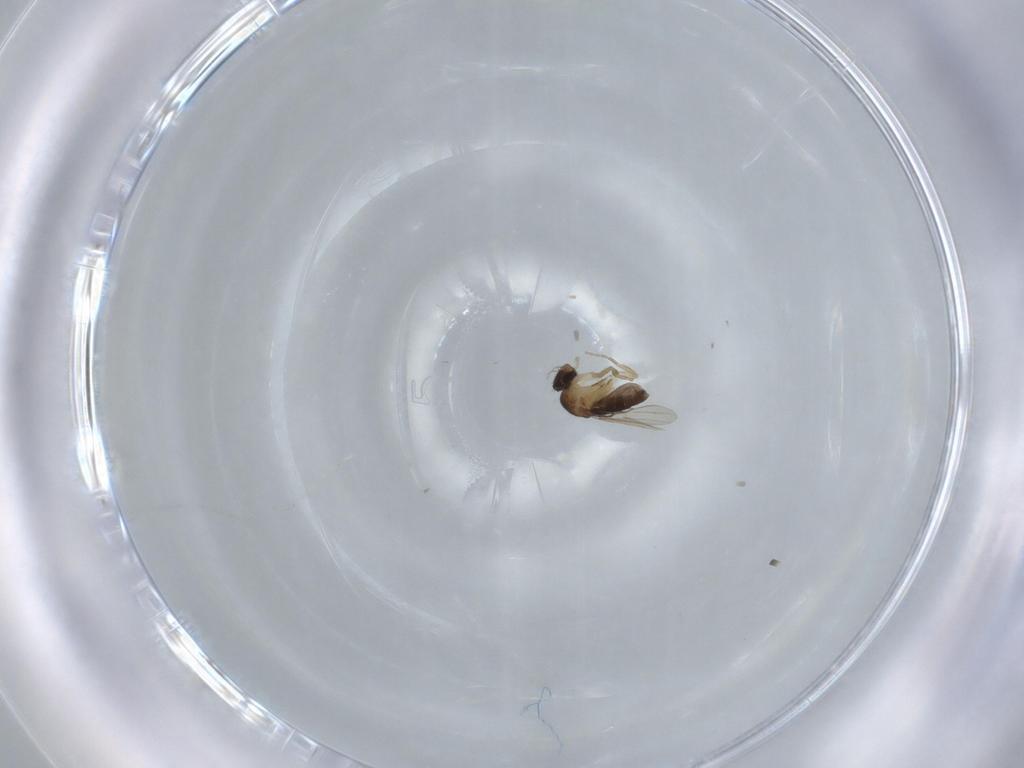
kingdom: Animalia
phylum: Arthropoda
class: Insecta
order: Diptera
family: Phoridae
